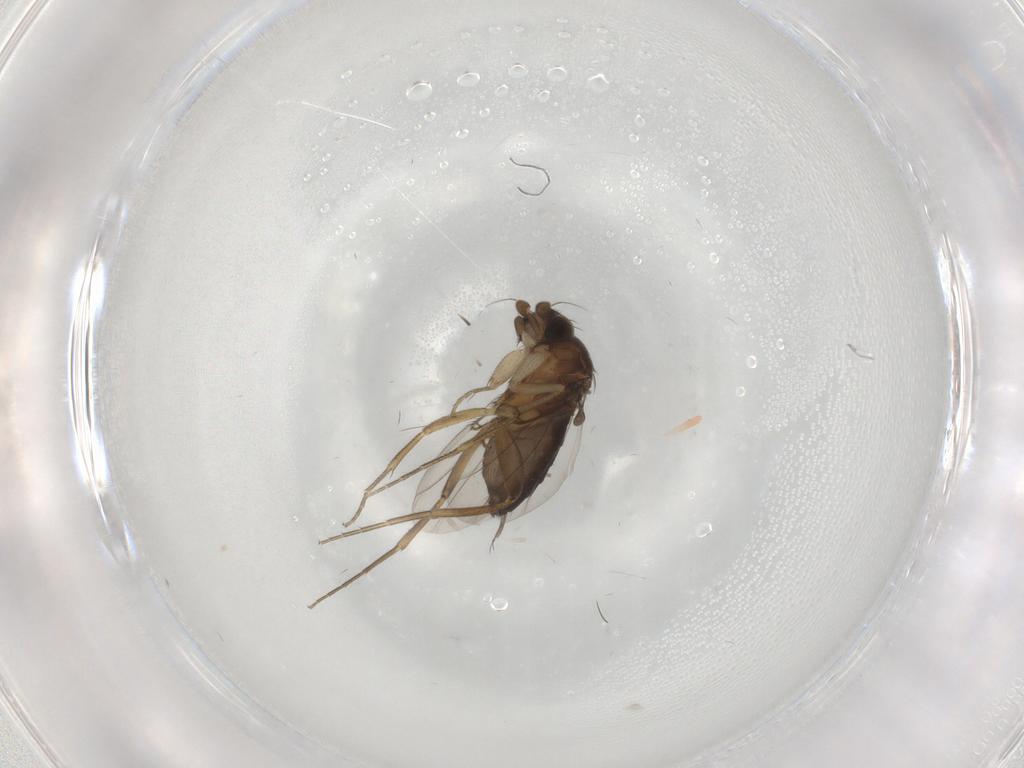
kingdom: Animalia
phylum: Arthropoda
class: Insecta
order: Diptera
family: Phoridae
